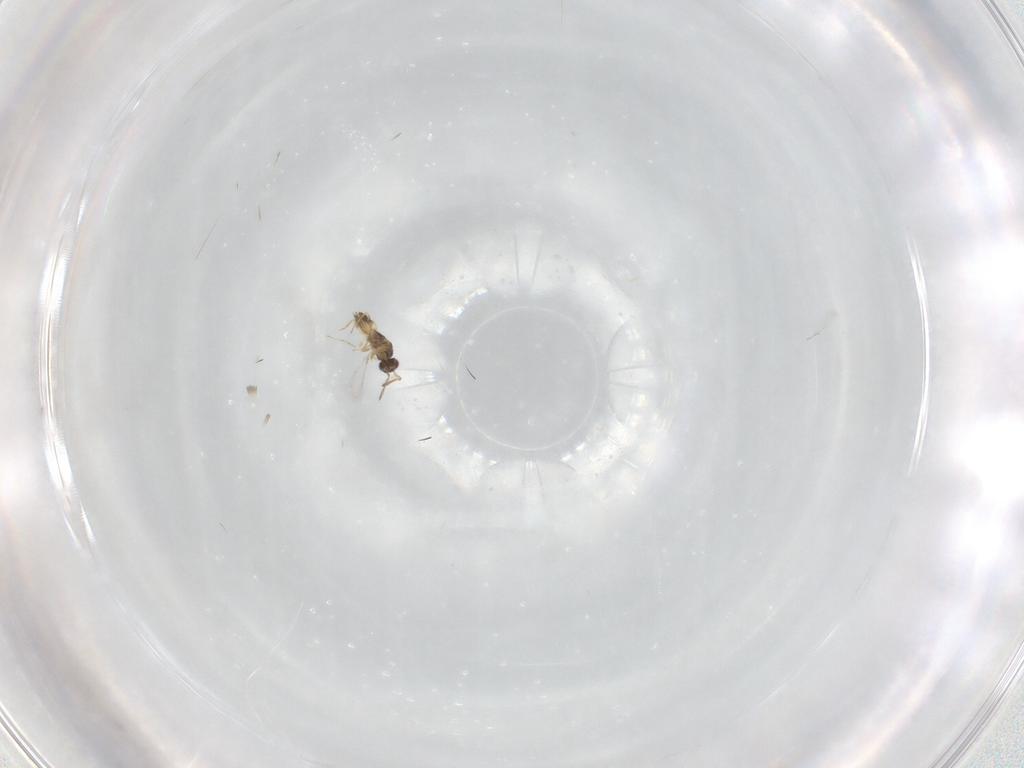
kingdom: Animalia
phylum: Arthropoda
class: Insecta
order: Hymenoptera
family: Mymaridae
